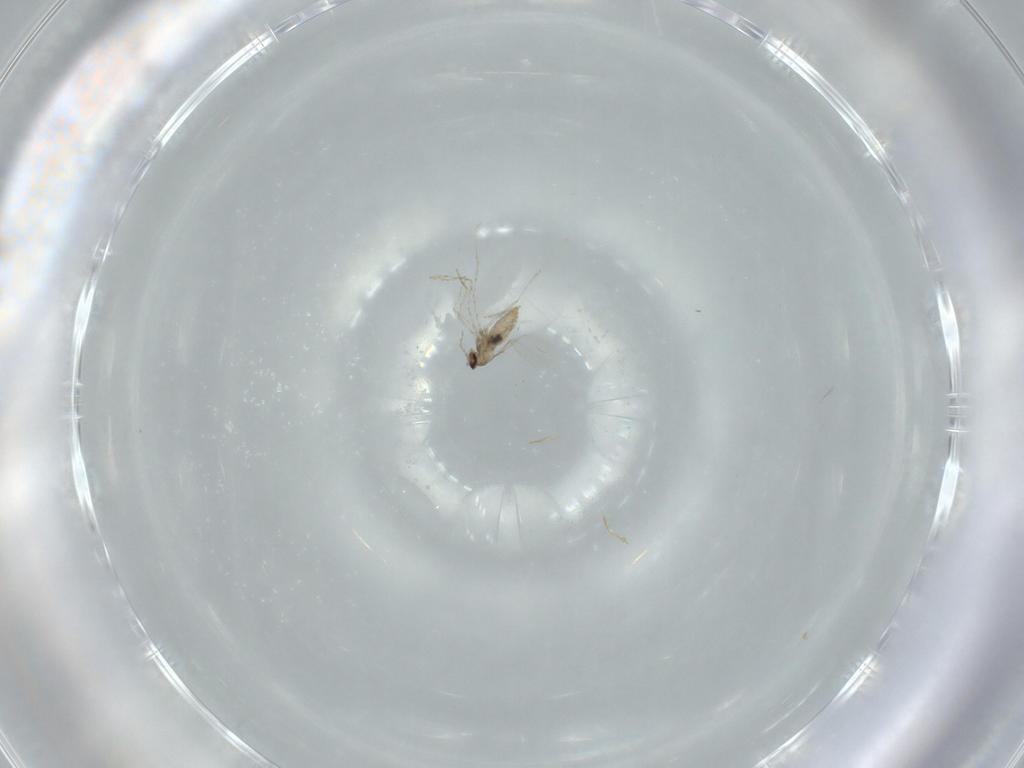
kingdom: Animalia
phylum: Arthropoda
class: Insecta
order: Diptera
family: Cecidomyiidae
